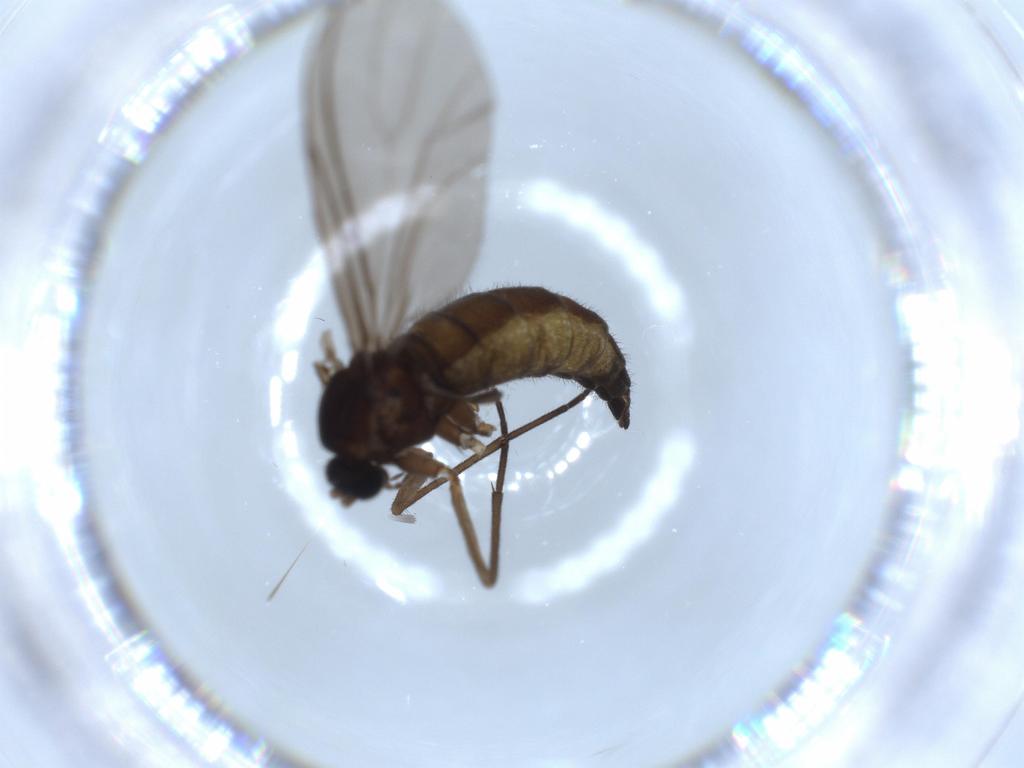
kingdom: Animalia
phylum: Arthropoda
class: Insecta
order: Diptera
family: Sciaridae
